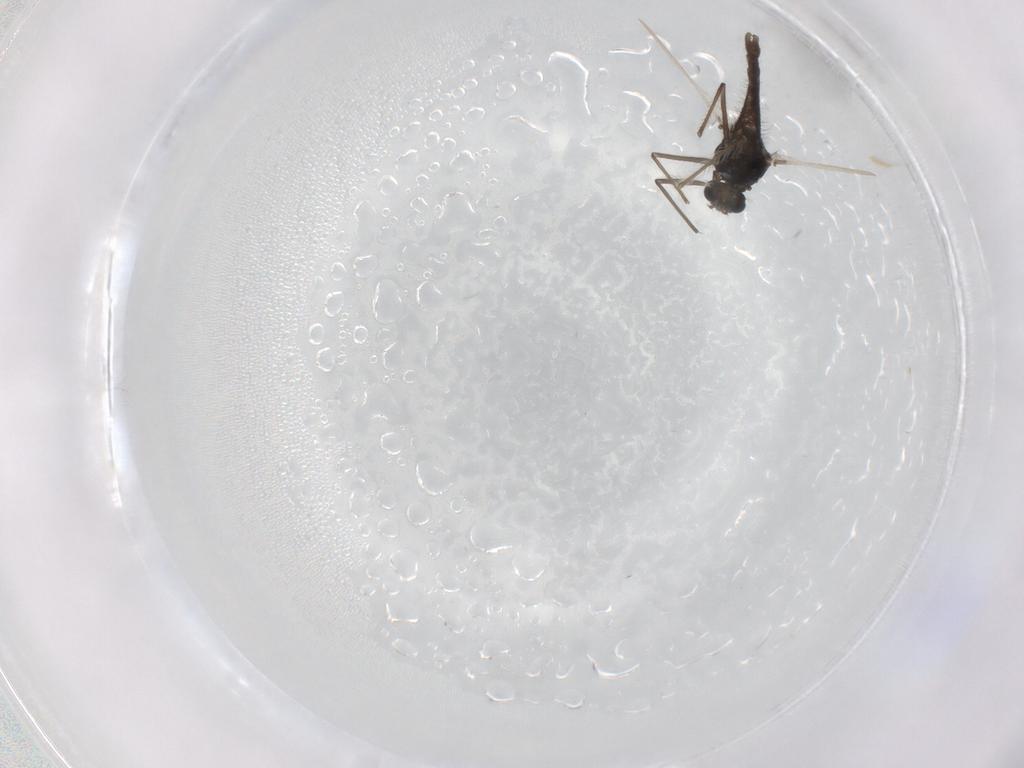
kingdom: Animalia
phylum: Arthropoda
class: Insecta
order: Diptera
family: Chironomidae
